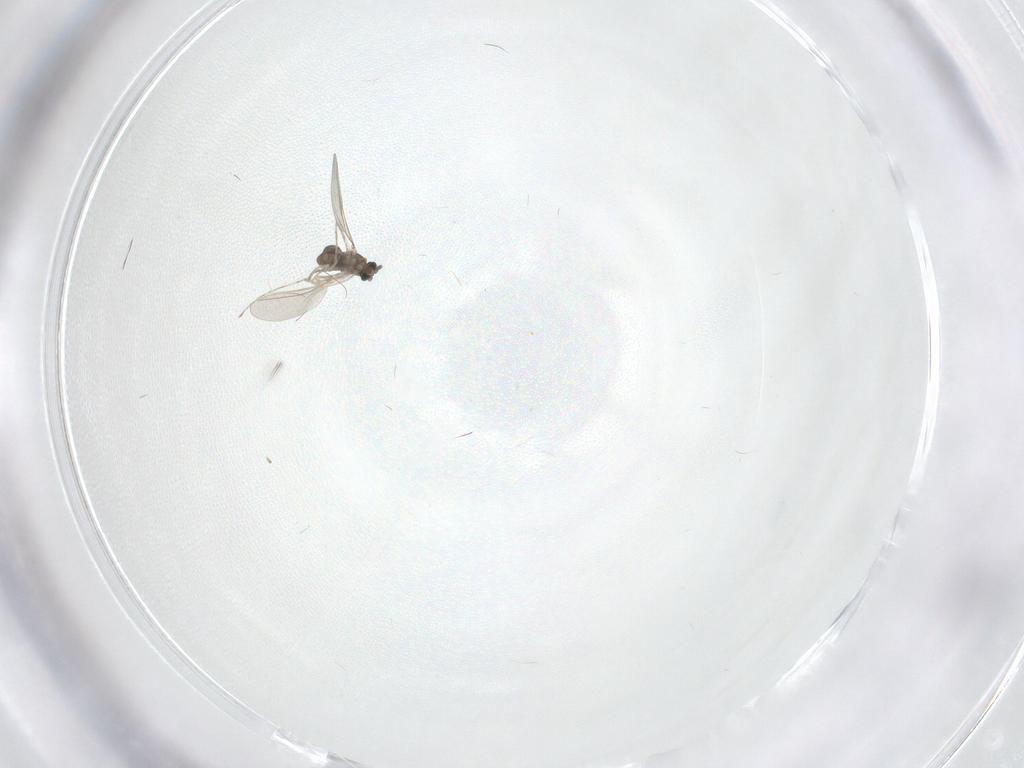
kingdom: Animalia
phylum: Arthropoda
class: Insecta
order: Diptera
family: Cecidomyiidae
